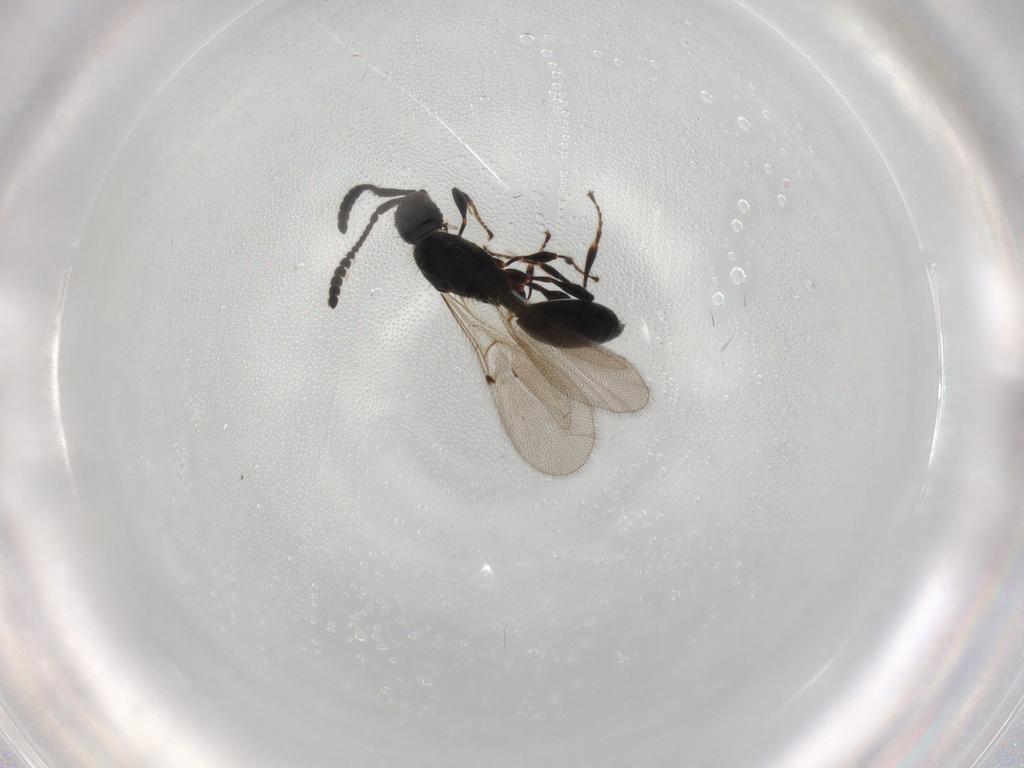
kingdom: Animalia
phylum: Arthropoda
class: Insecta
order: Hymenoptera
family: Diapriidae
